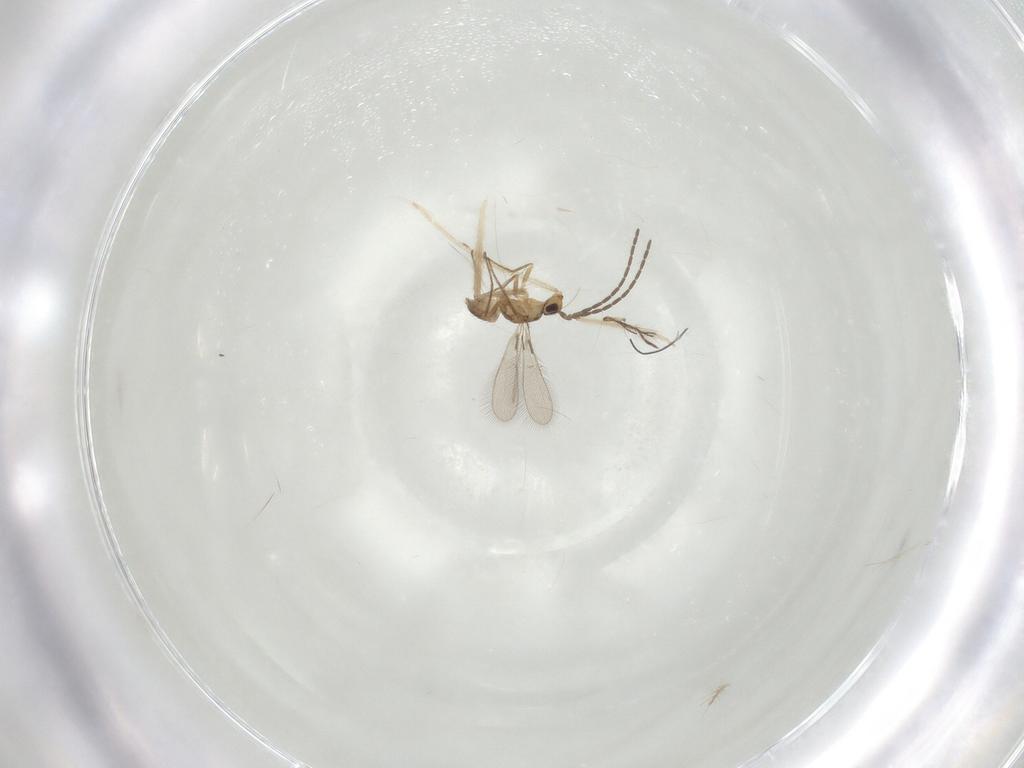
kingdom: Animalia
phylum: Arthropoda
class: Insecta
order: Hymenoptera
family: Eulophidae
